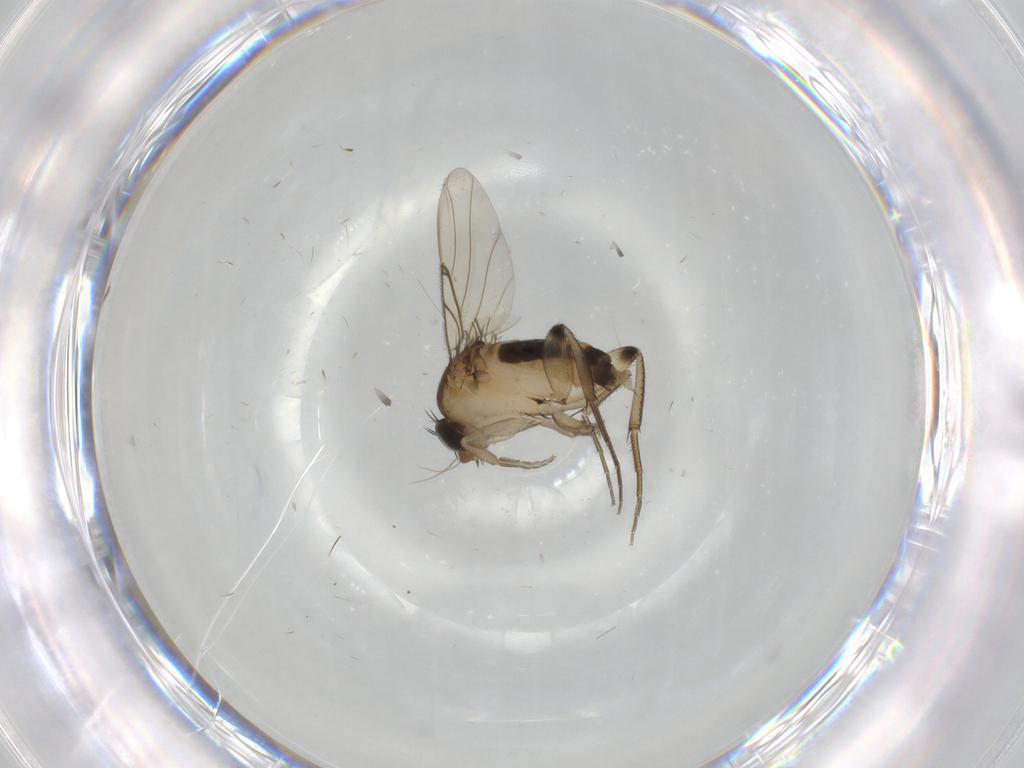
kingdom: Animalia
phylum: Arthropoda
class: Insecta
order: Diptera
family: Phoridae
